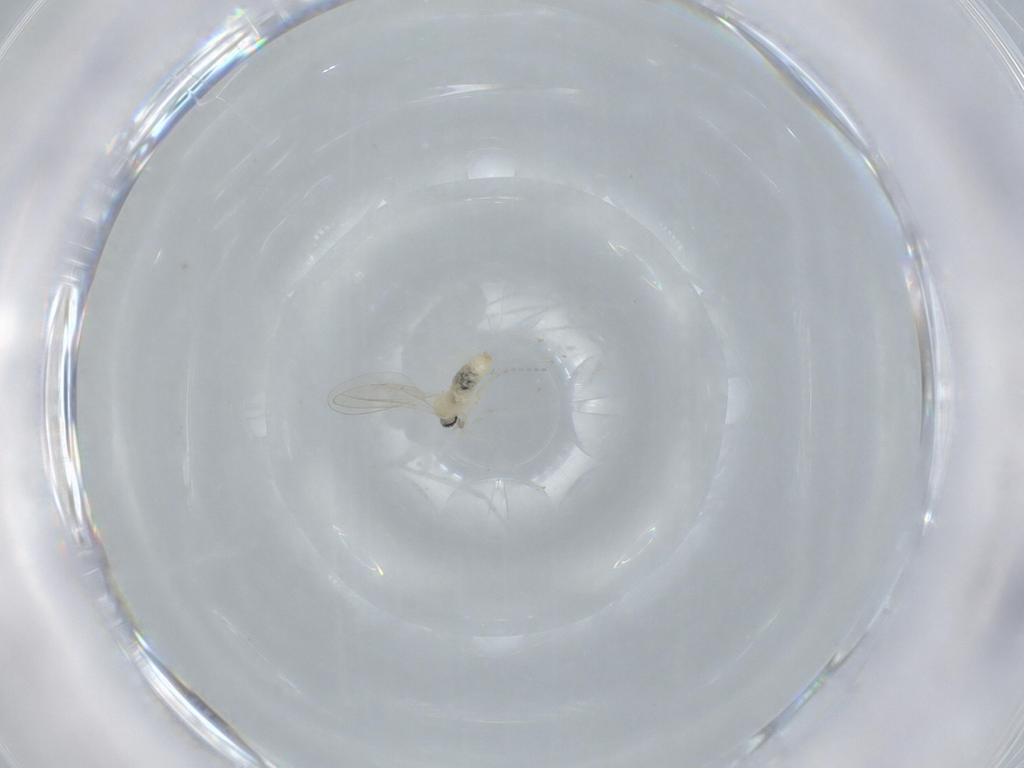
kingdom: Animalia
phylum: Arthropoda
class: Insecta
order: Diptera
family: Cecidomyiidae
